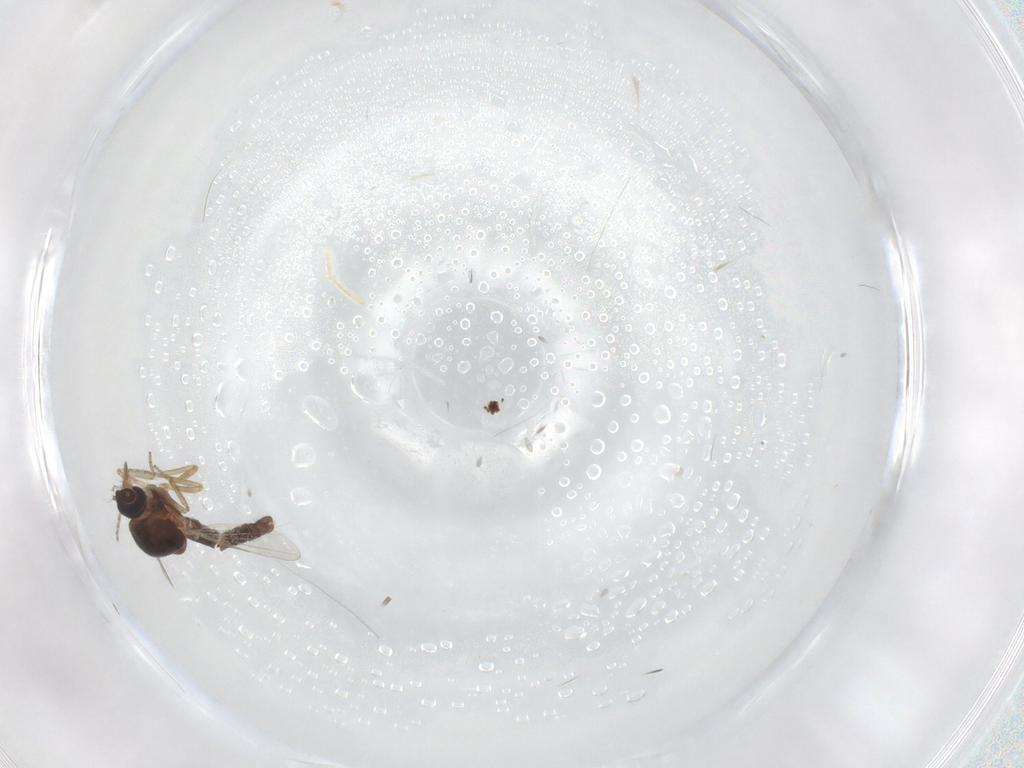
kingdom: Animalia
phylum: Arthropoda
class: Insecta
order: Diptera
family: Ceratopogonidae
